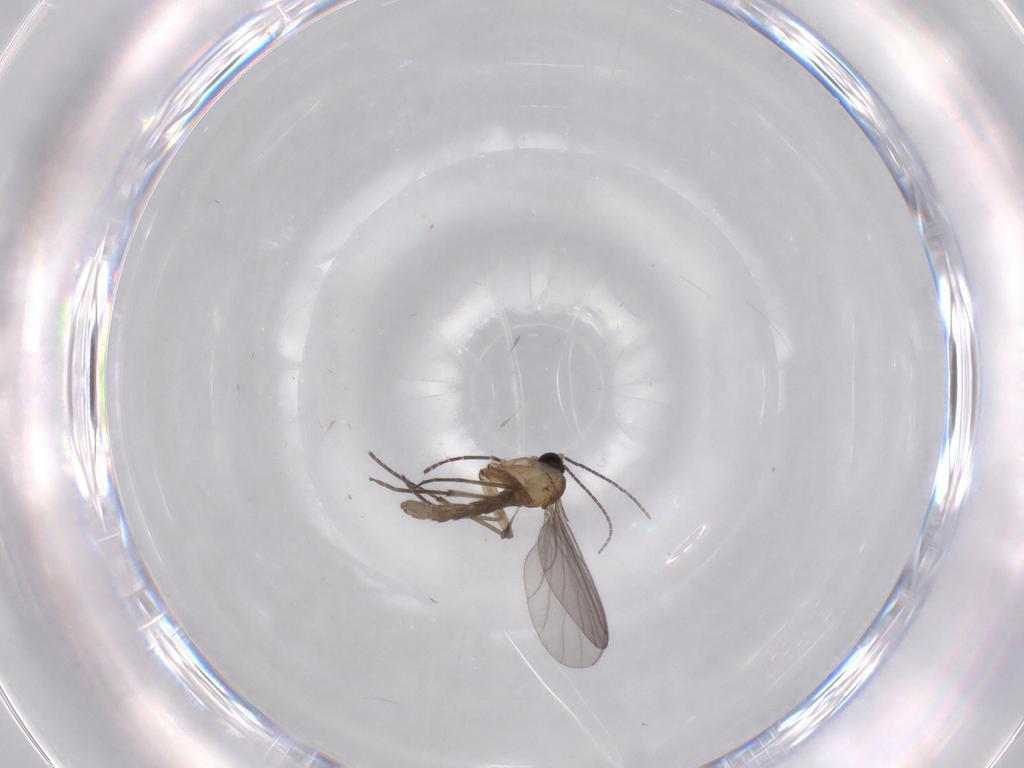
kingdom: Animalia
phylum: Arthropoda
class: Insecta
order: Diptera
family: Sciaridae
